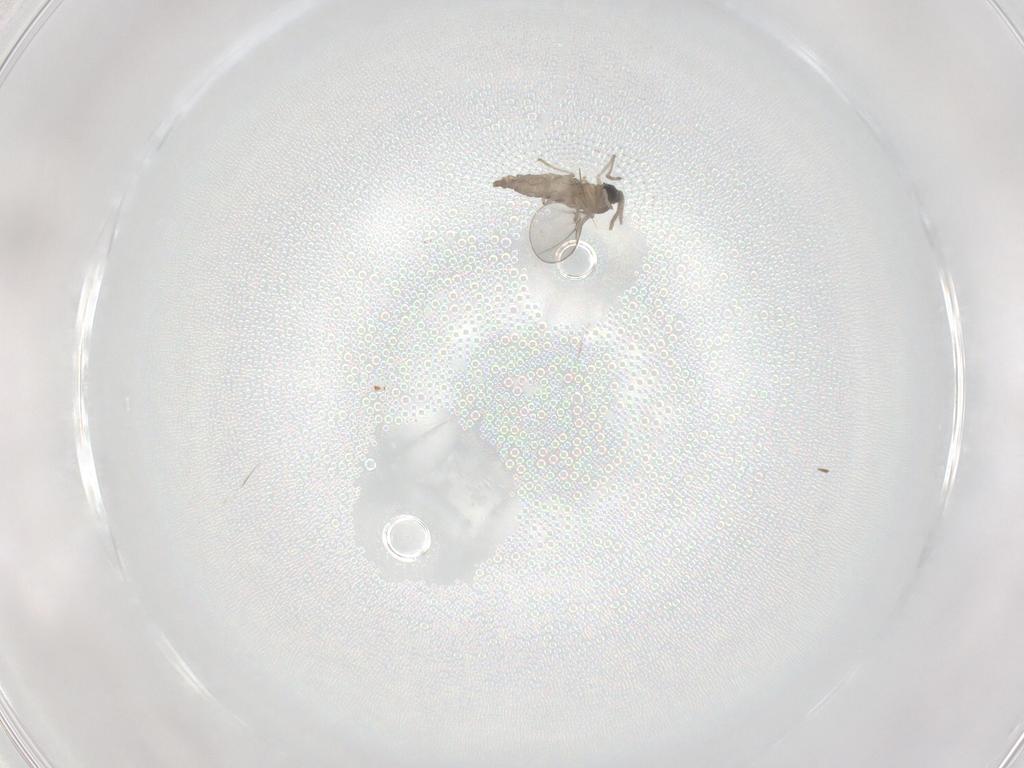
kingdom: Animalia
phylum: Arthropoda
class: Insecta
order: Diptera
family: Cecidomyiidae
